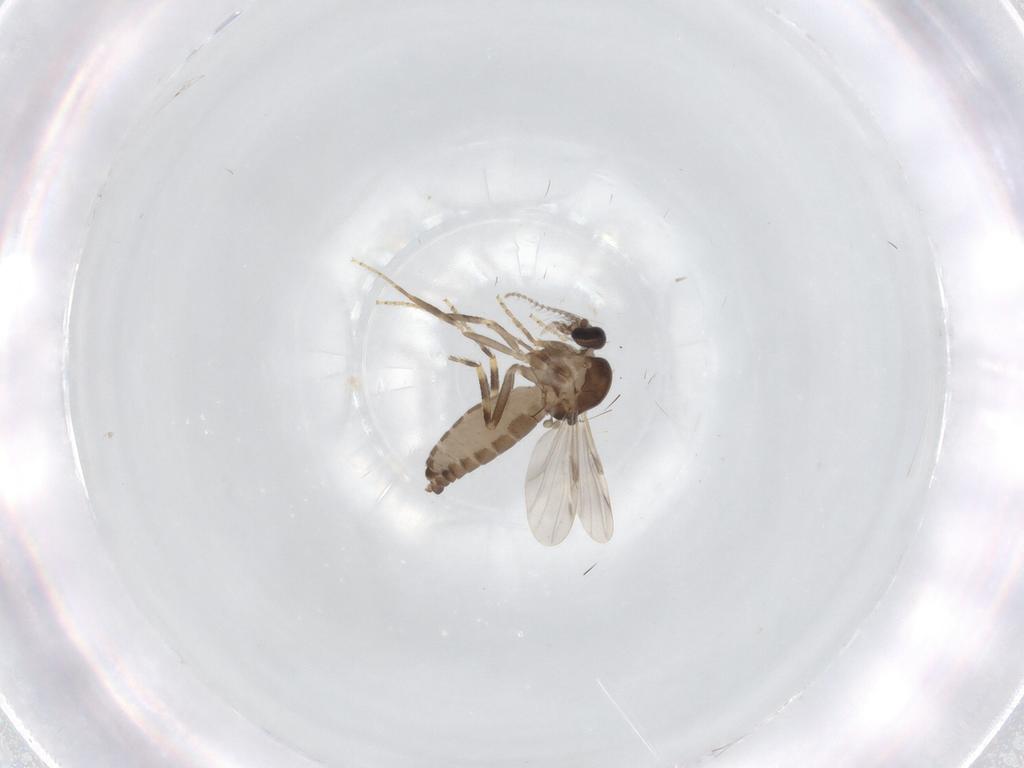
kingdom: Animalia
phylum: Arthropoda
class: Insecta
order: Diptera
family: Ceratopogonidae
